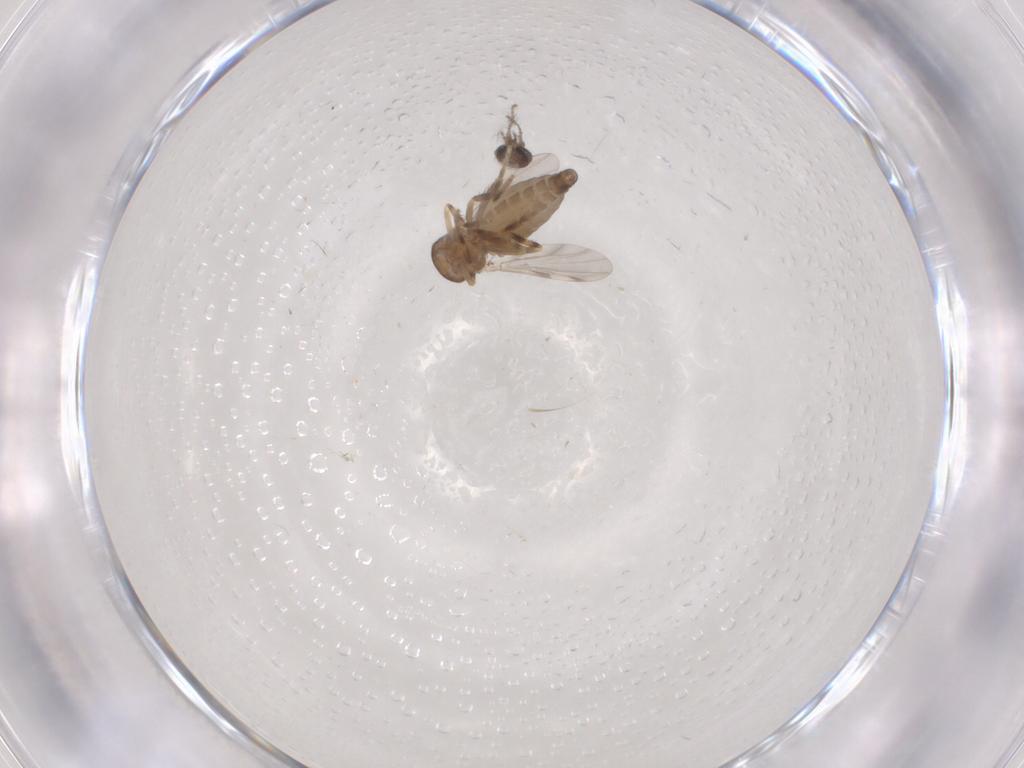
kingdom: Animalia
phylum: Arthropoda
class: Insecta
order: Diptera
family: Ceratopogonidae
